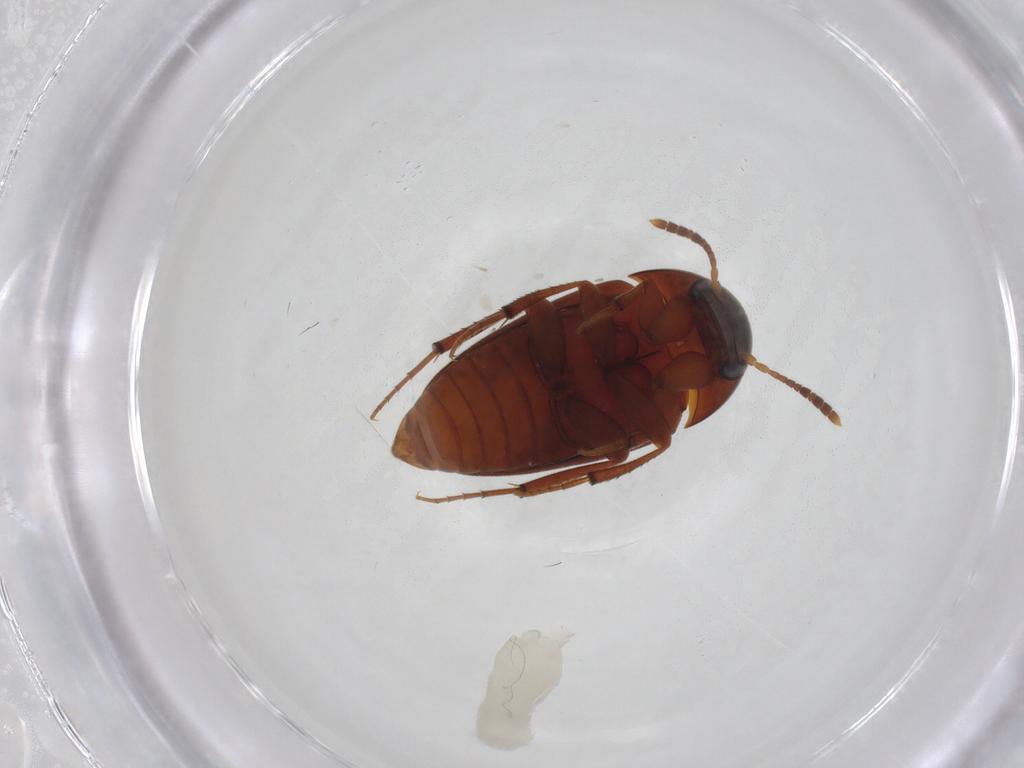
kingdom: Animalia
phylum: Arthropoda
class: Insecta
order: Coleoptera
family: Leiodidae
